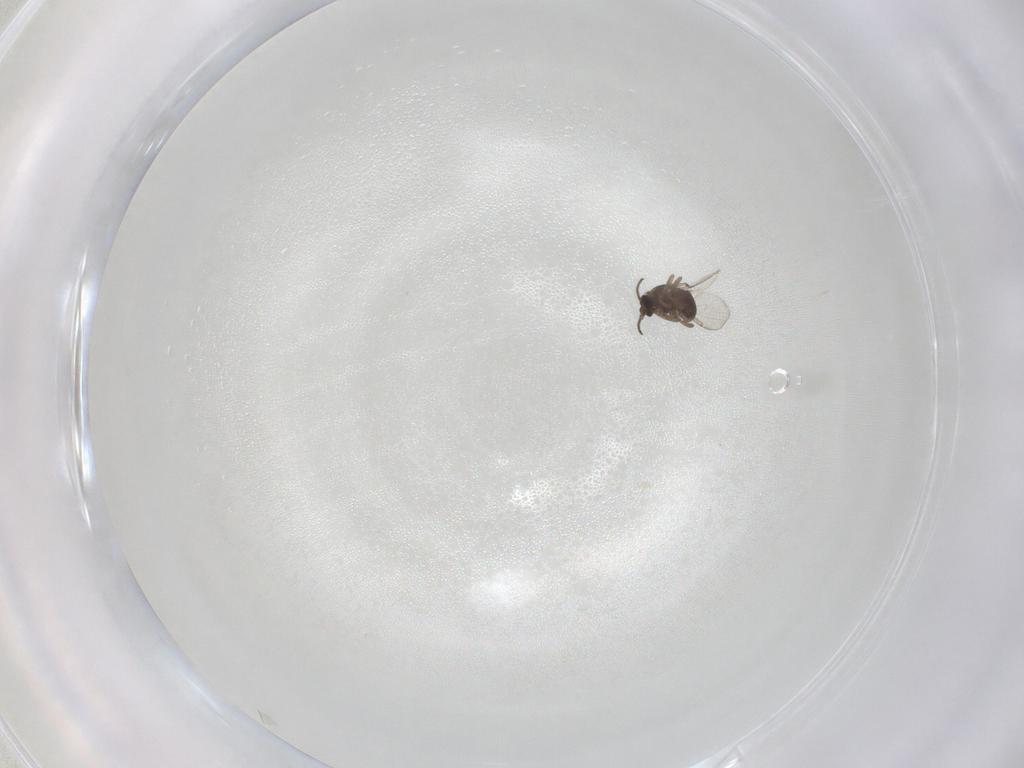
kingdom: Animalia
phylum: Arthropoda
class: Insecta
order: Diptera
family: Ceratopogonidae
